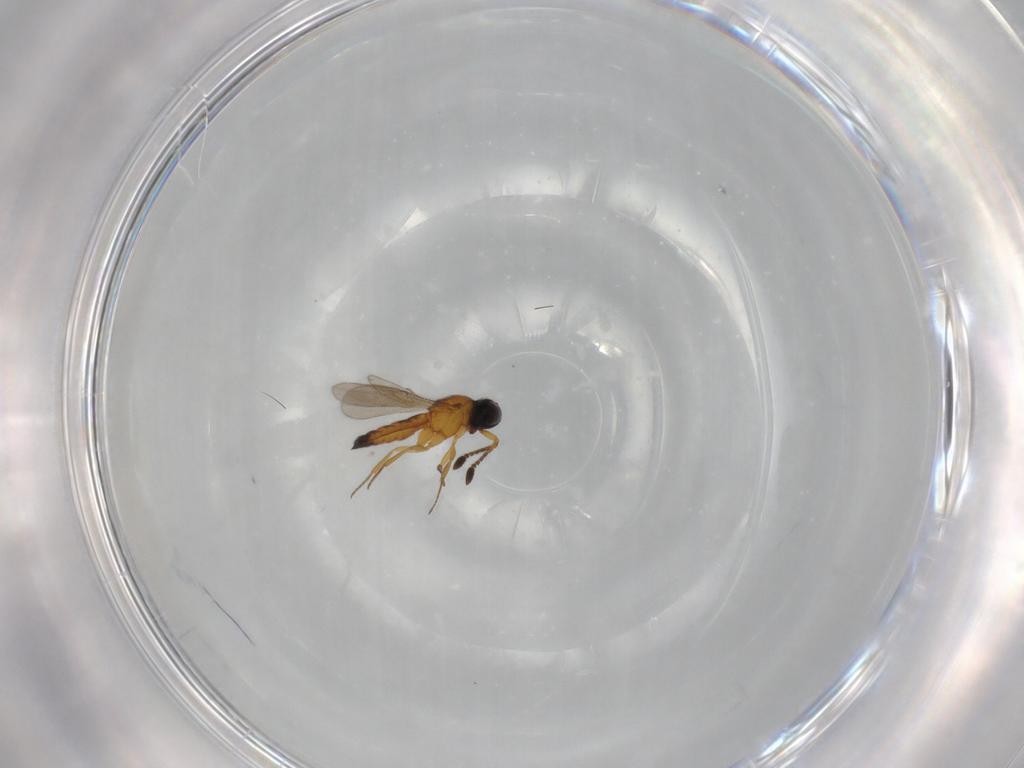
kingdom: Animalia
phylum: Arthropoda
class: Insecta
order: Hymenoptera
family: Scelionidae
